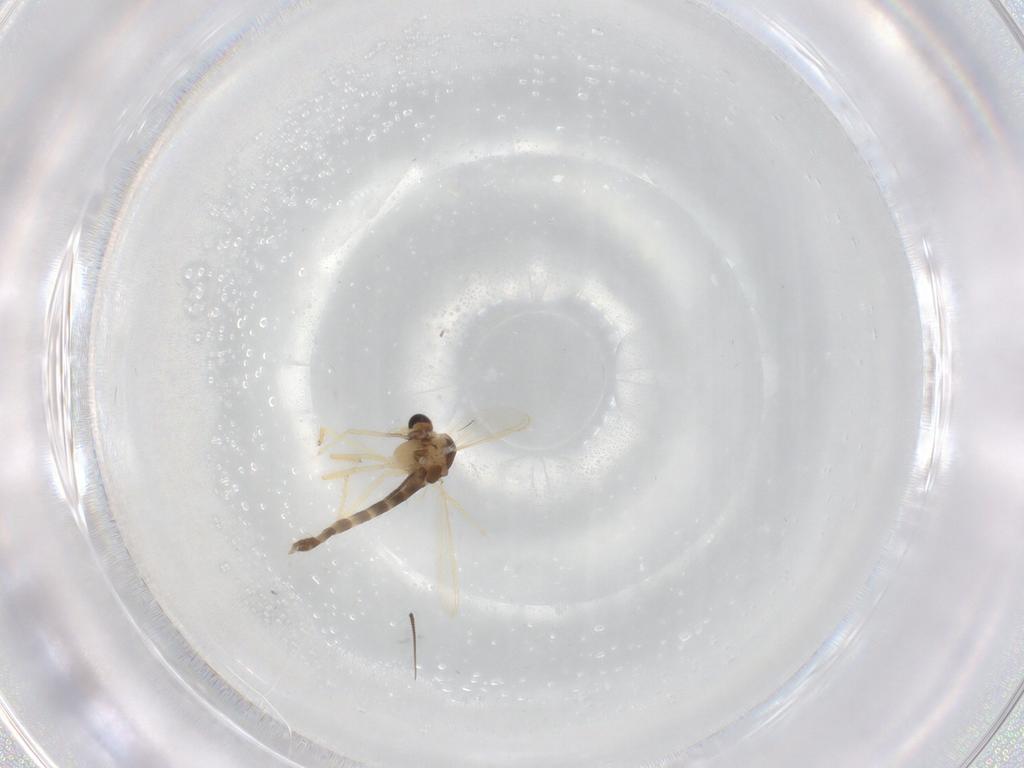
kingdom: Animalia
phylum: Arthropoda
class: Insecta
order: Diptera
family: Chironomidae
